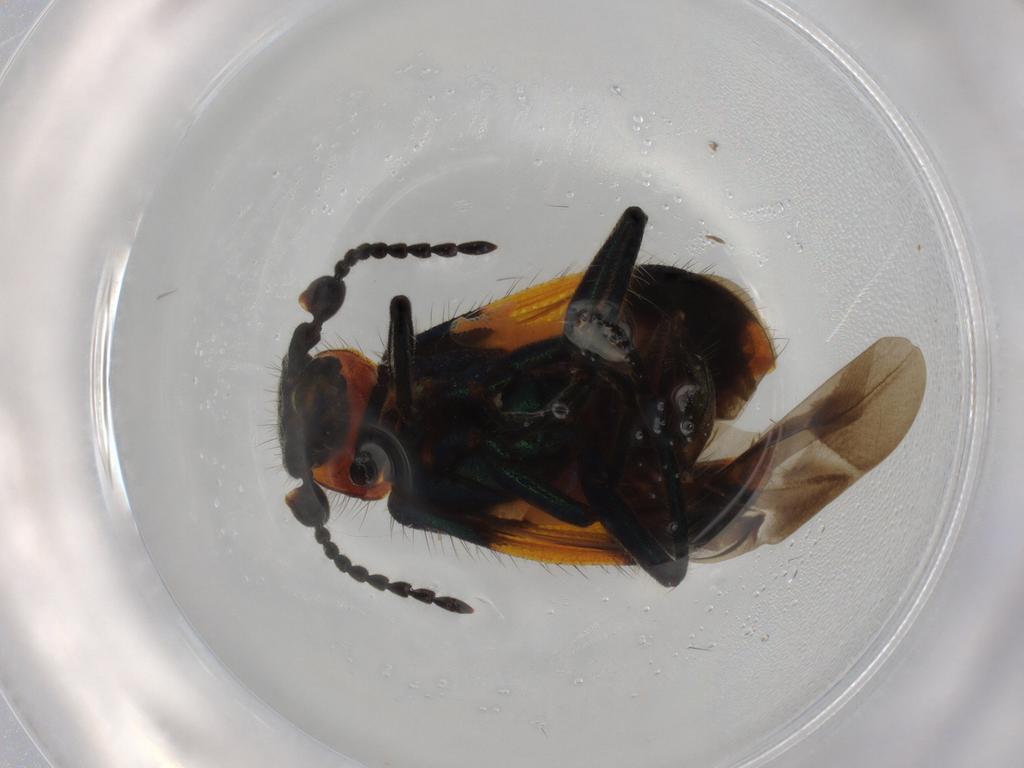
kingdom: Animalia
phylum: Arthropoda
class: Insecta
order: Coleoptera
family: Melyridae
